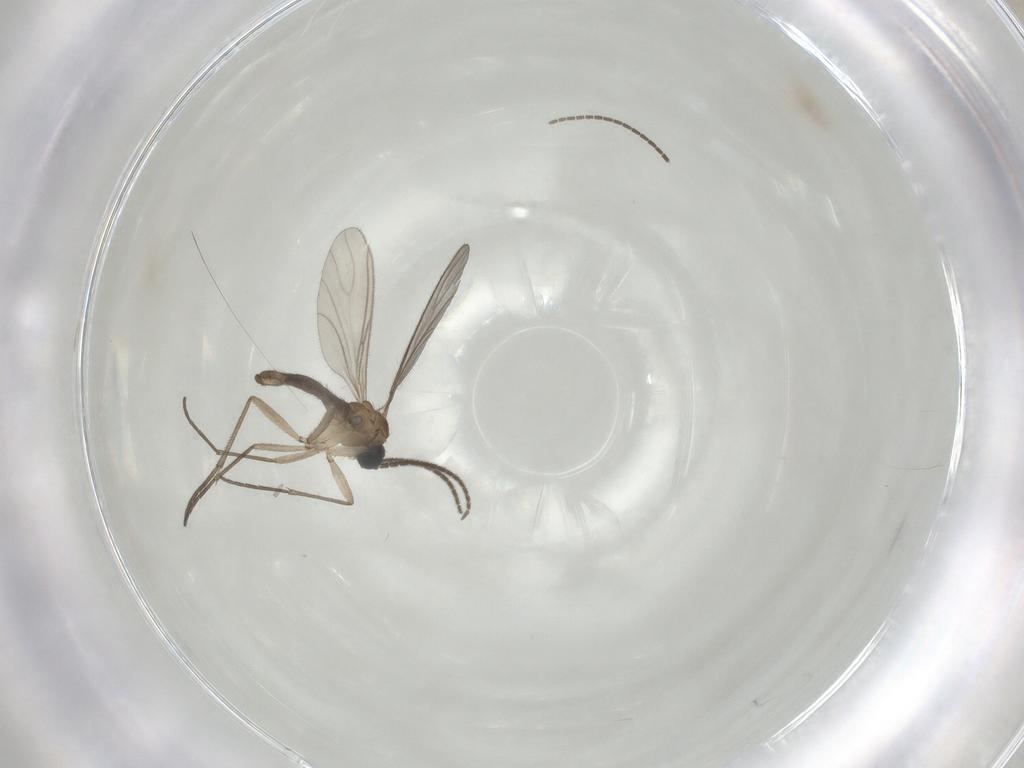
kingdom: Animalia
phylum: Arthropoda
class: Insecta
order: Diptera
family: Sciaridae
